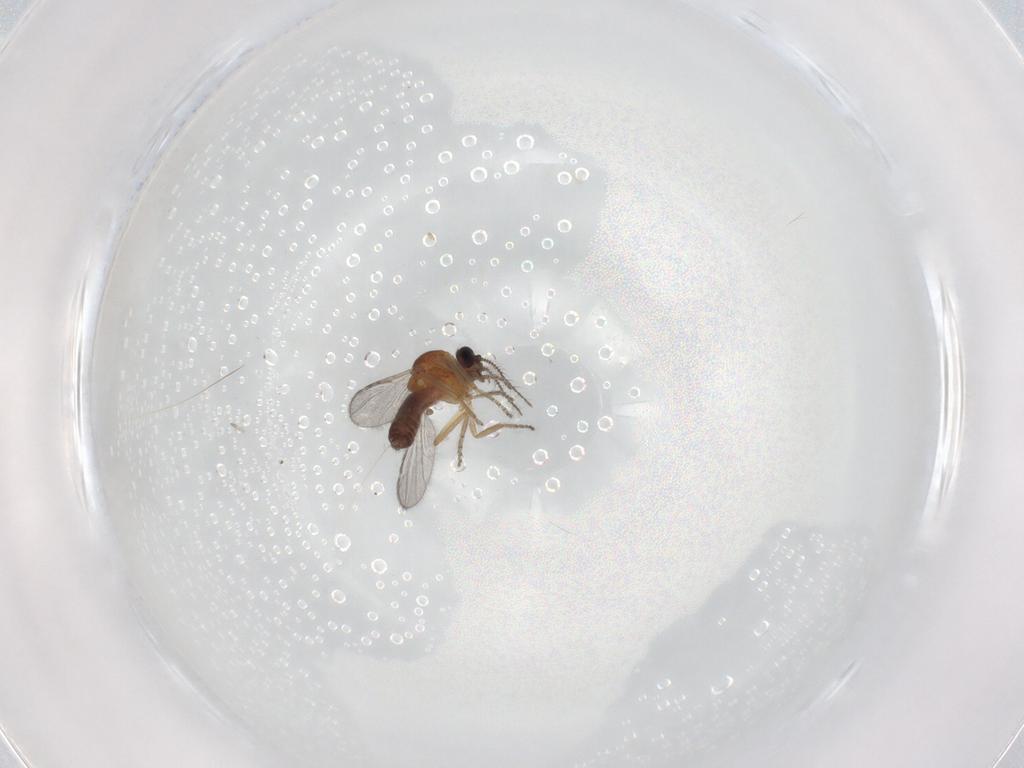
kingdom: Animalia
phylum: Arthropoda
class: Insecta
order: Diptera
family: Ceratopogonidae
